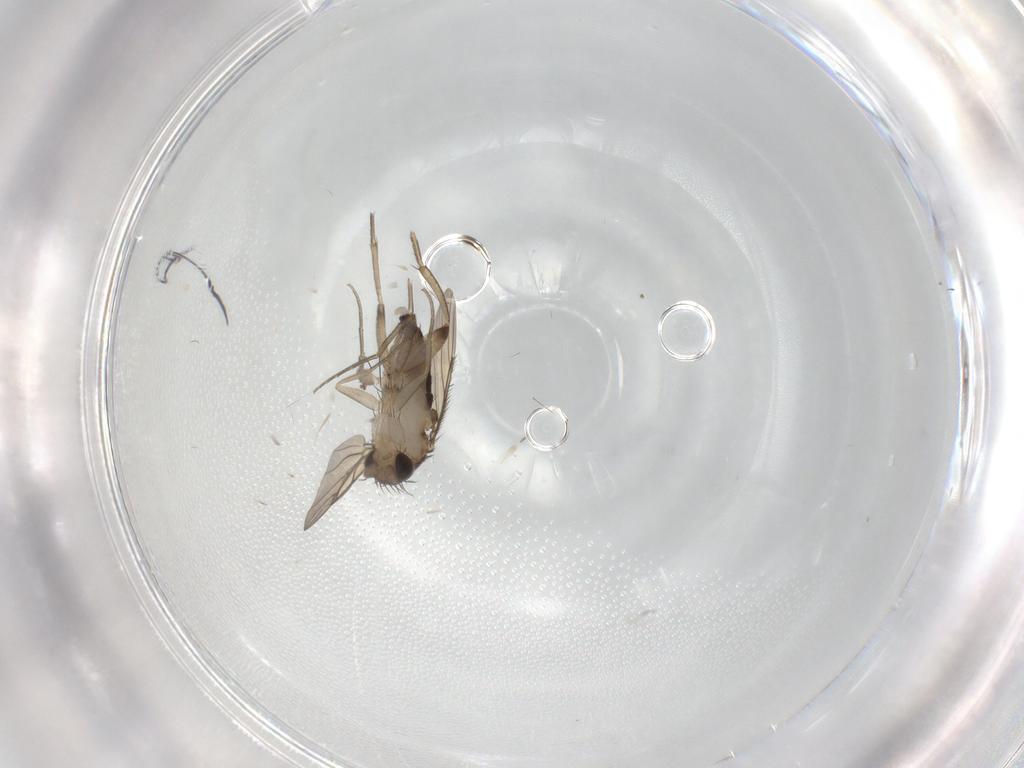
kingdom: Animalia
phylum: Arthropoda
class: Insecta
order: Diptera
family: Phoridae
